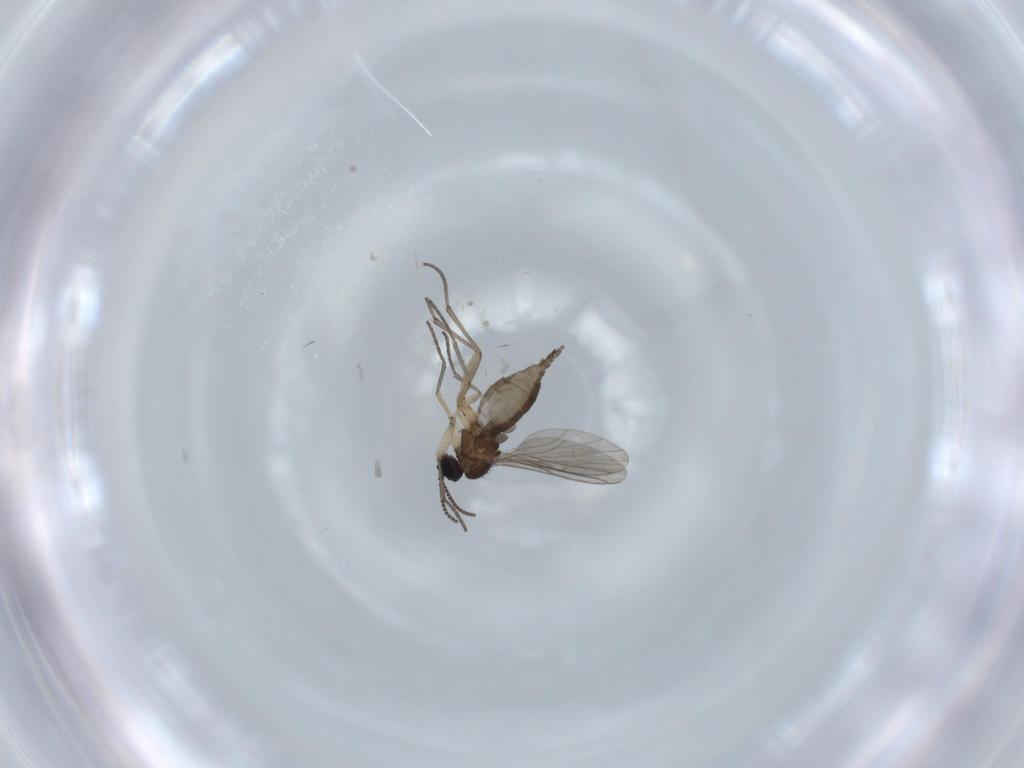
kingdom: Animalia
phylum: Arthropoda
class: Insecta
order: Diptera
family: Sciaridae
